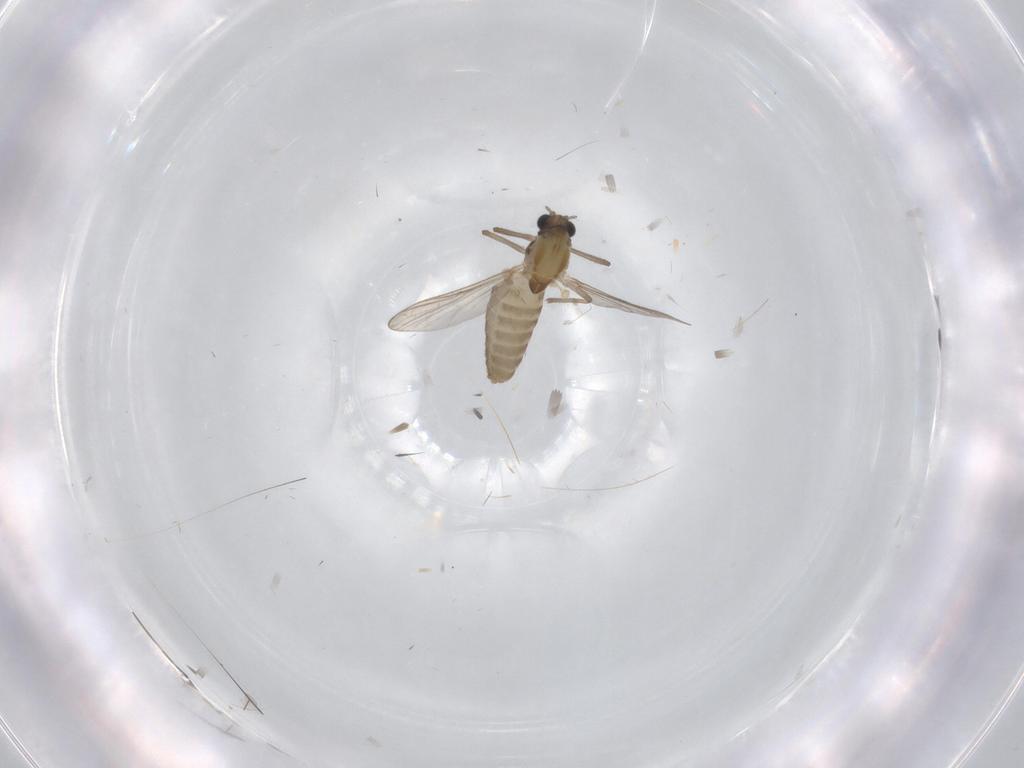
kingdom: Animalia
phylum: Arthropoda
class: Insecta
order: Diptera
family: Chironomidae
